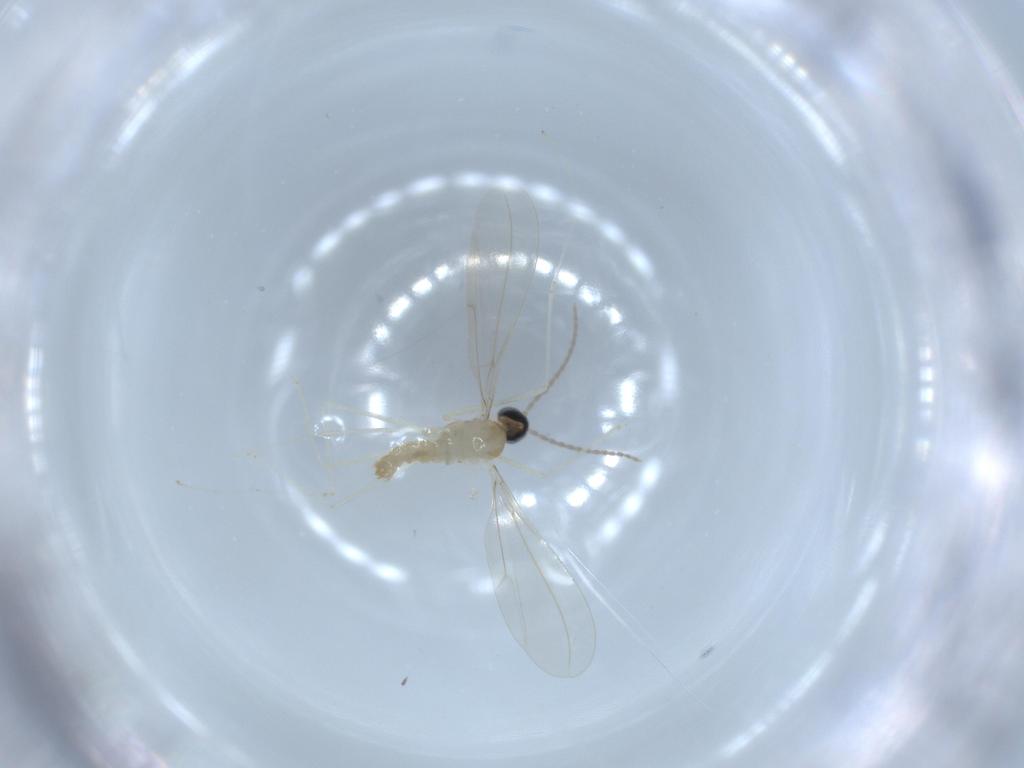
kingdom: Animalia
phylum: Arthropoda
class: Insecta
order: Diptera
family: Cecidomyiidae
